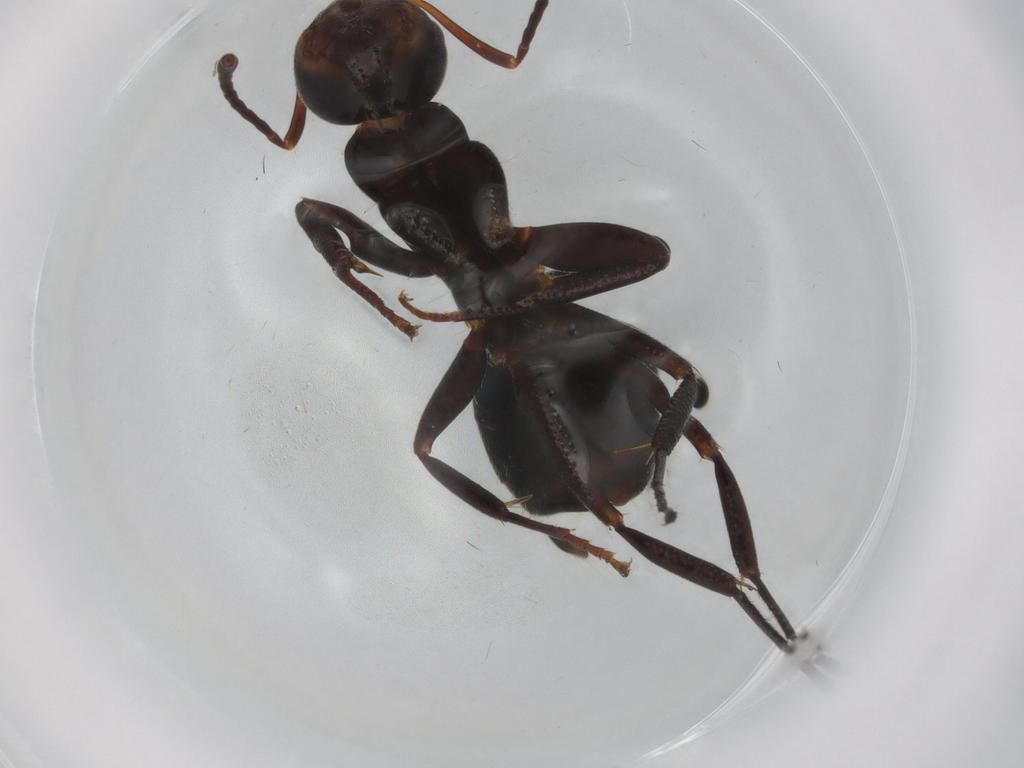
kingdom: Animalia
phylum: Arthropoda
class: Insecta
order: Hymenoptera
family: Formicidae
